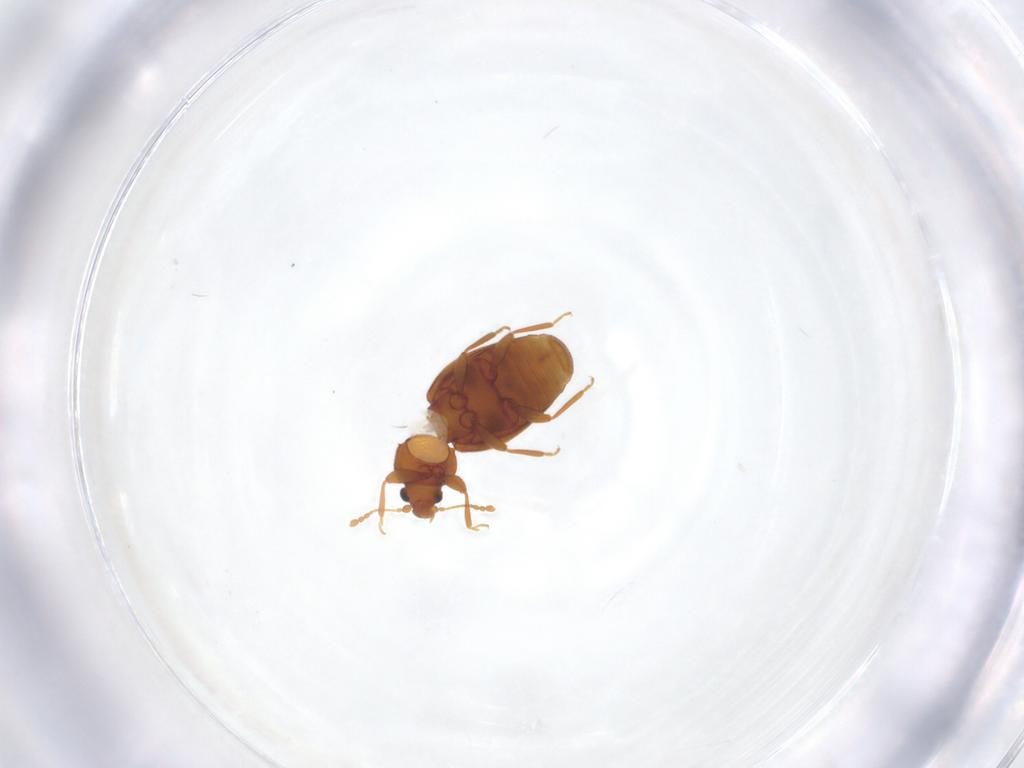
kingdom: Animalia
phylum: Arthropoda
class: Insecta
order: Coleoptera
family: Latridiidae
